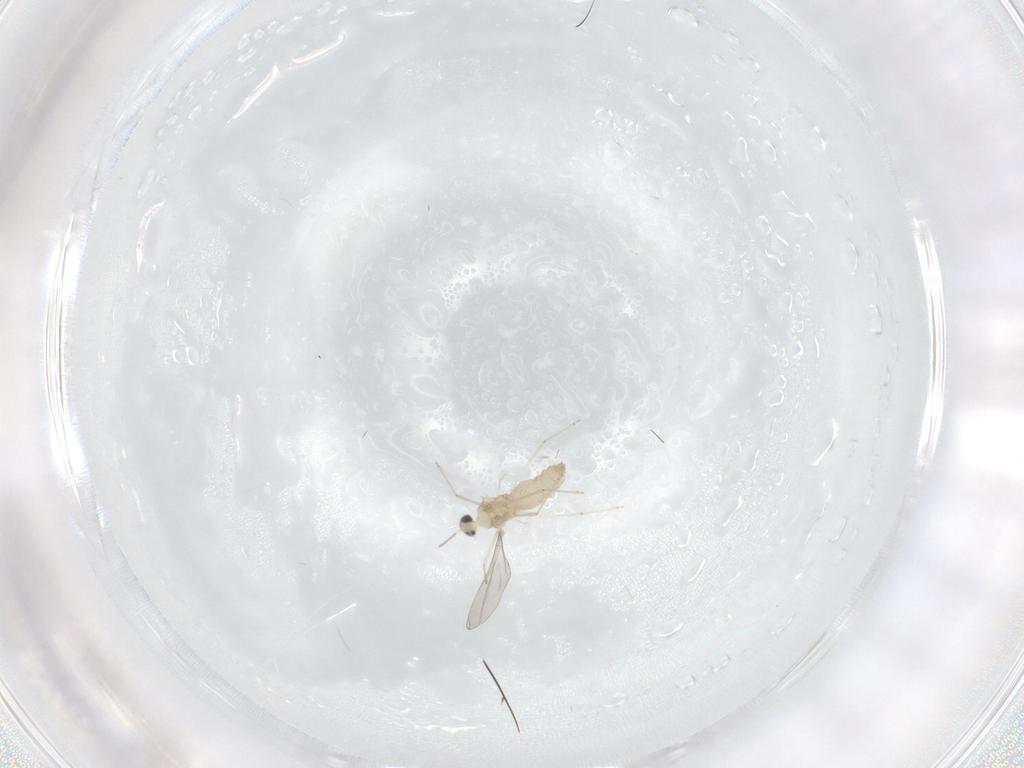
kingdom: Animalia
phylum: Arthropoda
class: Insecta
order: Diptera
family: Cecidomyiidae
